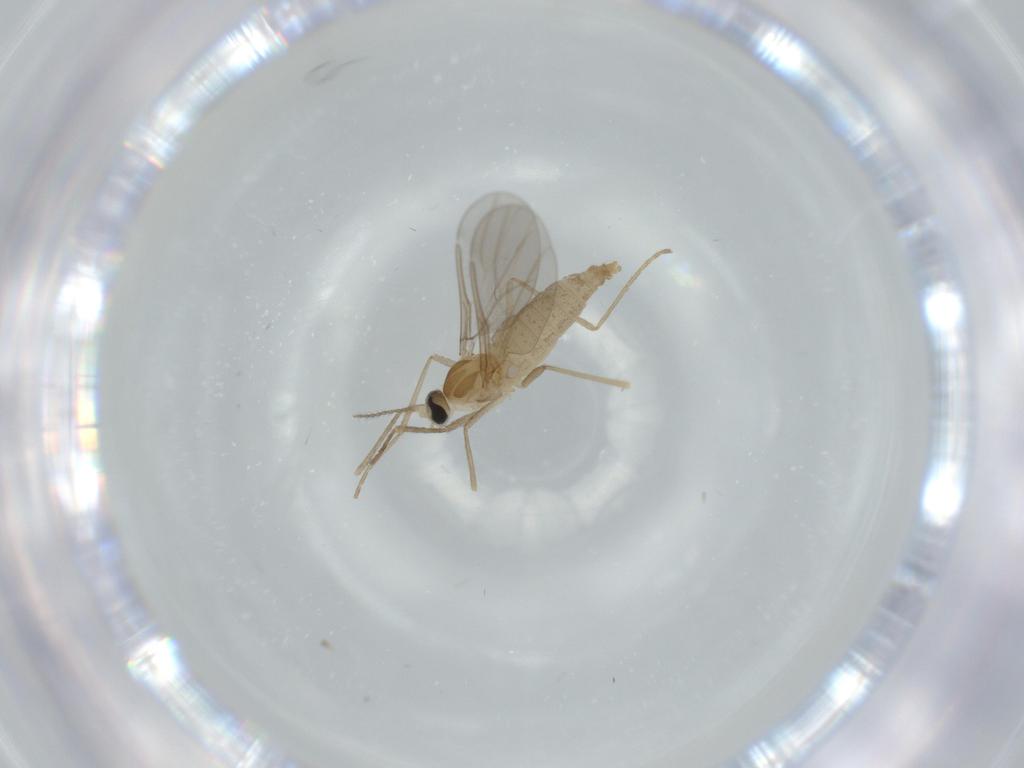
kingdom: Animalia
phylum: Arthropoda
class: Insecta
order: Diptera
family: Cecidomyiidae
